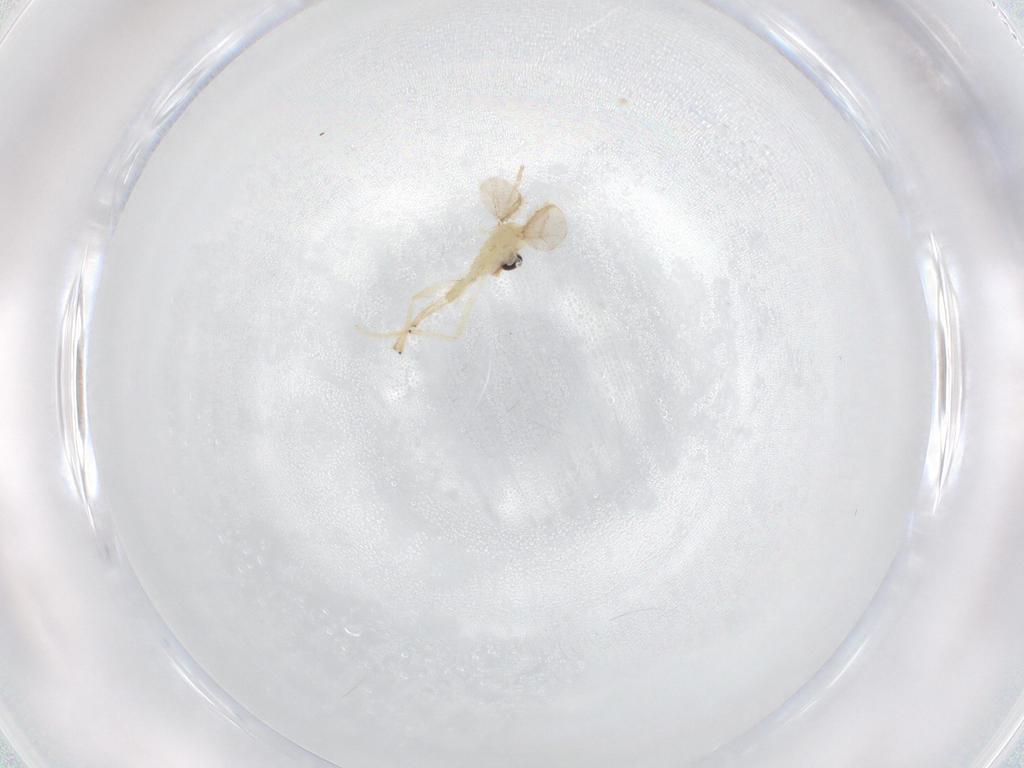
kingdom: Animalia
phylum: Arthropoda
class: Insecta
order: Diptera
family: Chironomidae
